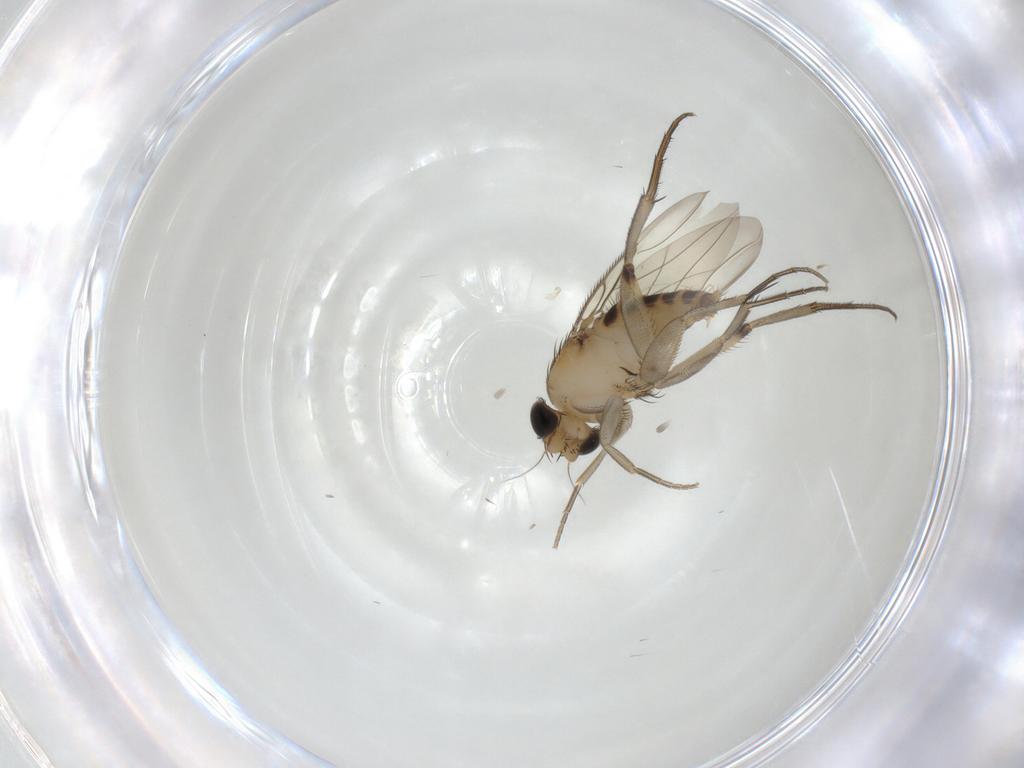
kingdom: Animalia
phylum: Arthropoda
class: Insecta
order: Diptera
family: Phoridae
